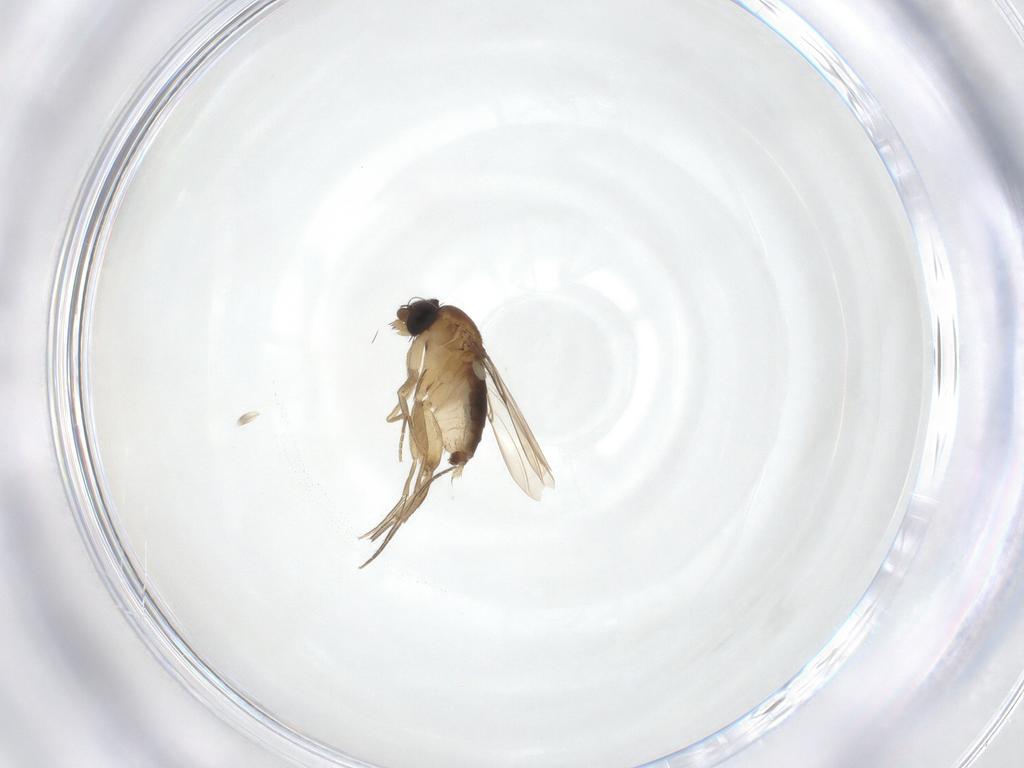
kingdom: Animalia
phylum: Arthropoda
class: Insecta
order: Diptera
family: Phoridae
